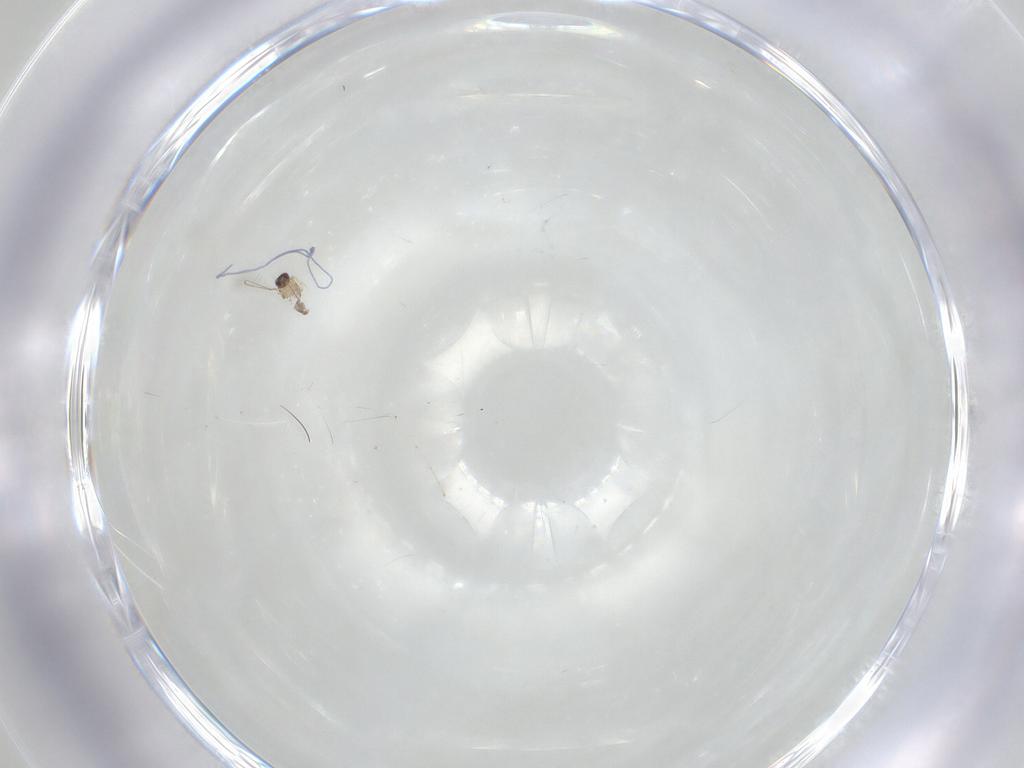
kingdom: Animalia
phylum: Arthropoda
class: Insecta
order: Hymenoptera
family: Mymaridae
